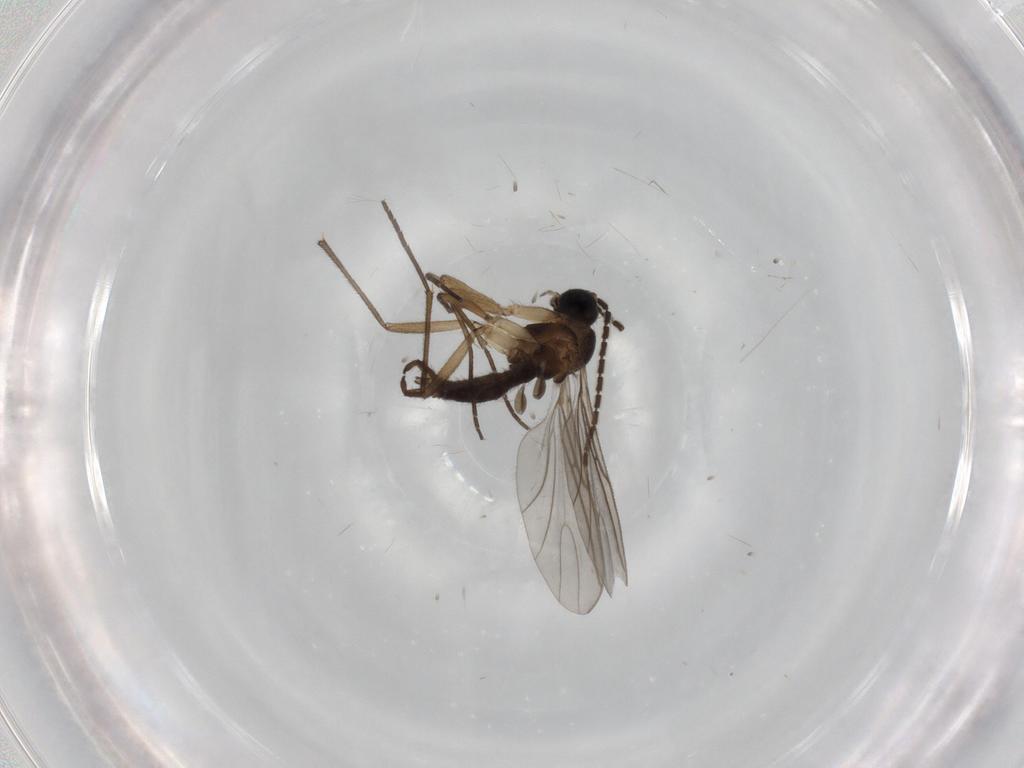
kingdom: Animalia
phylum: Arthropoda
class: Insecta
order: Diptera
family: Sciaridae
